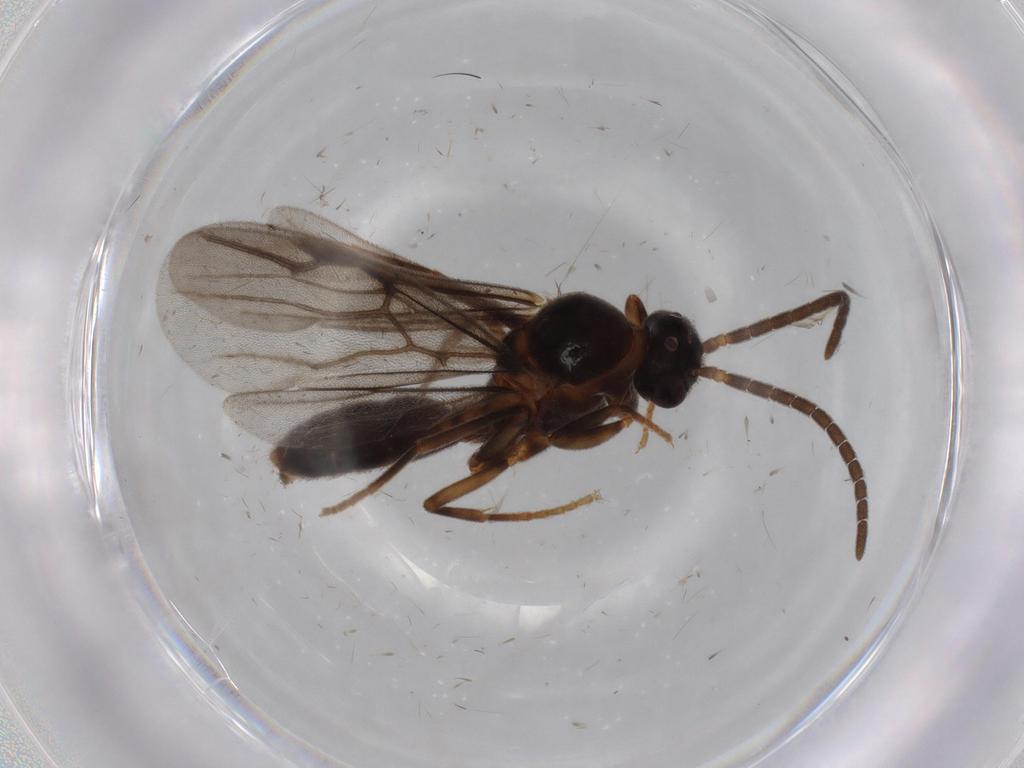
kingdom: Animalia
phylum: Arthropoda
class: Insecta
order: Hymenoptera
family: Formicidae
